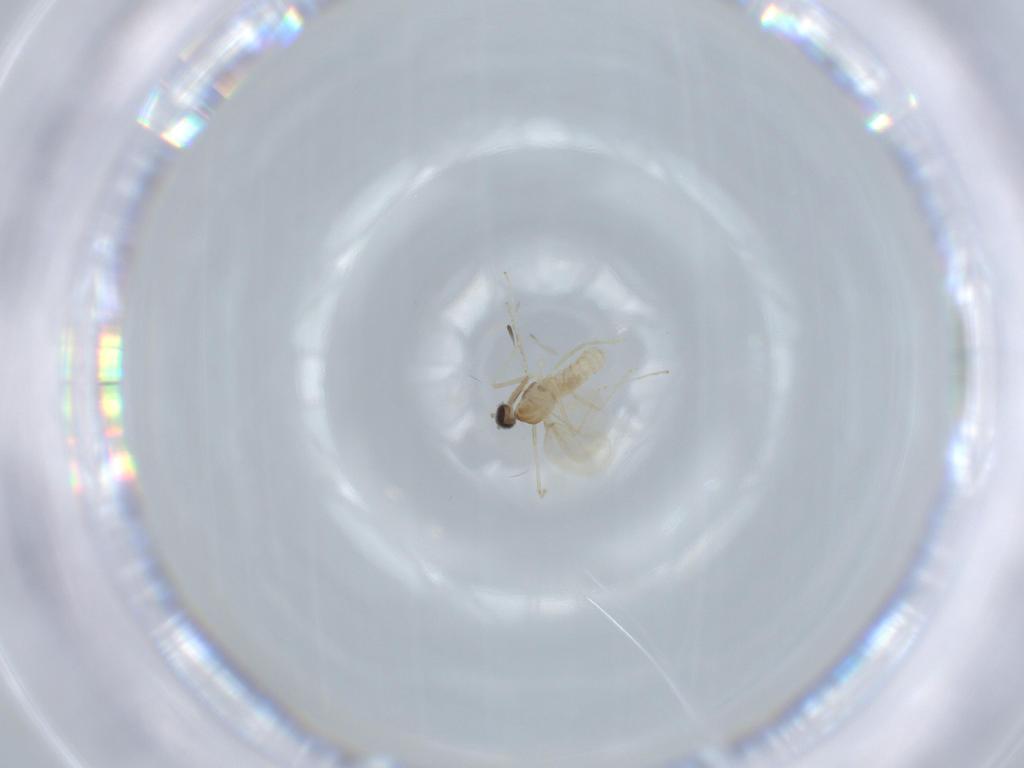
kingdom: Animalia
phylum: Arthropoda
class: Insecta
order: Diptera
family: Cecidomyiidae
